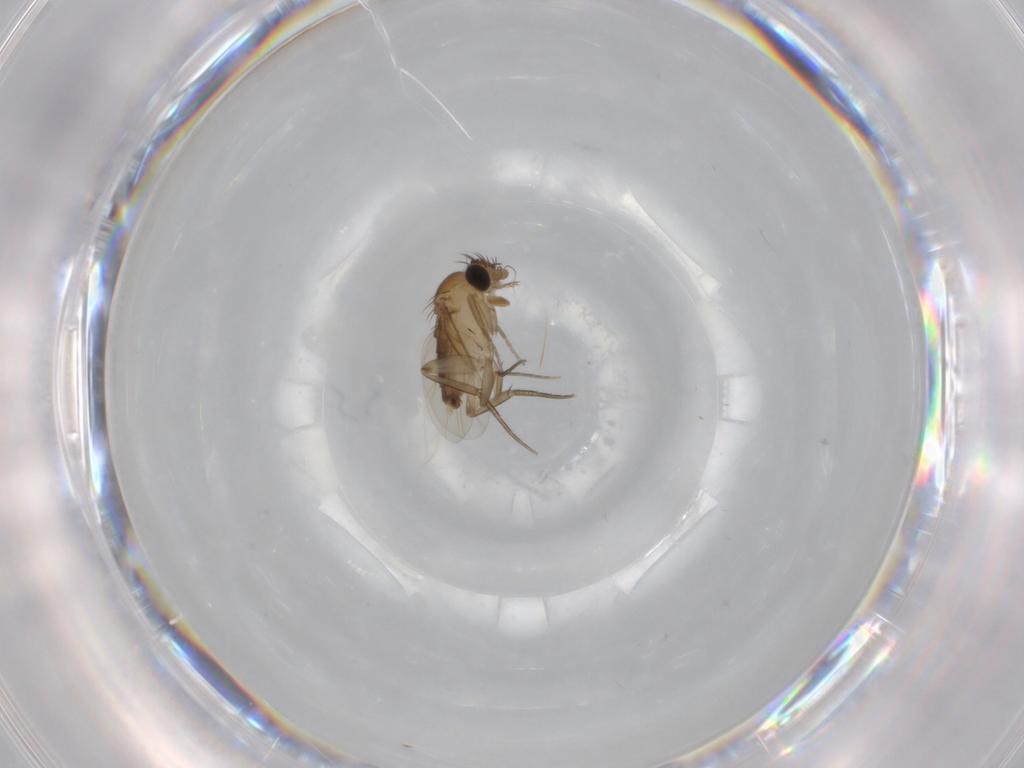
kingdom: Animalia
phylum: Arthropoda
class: Insecta
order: Diptera
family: Phoridae
